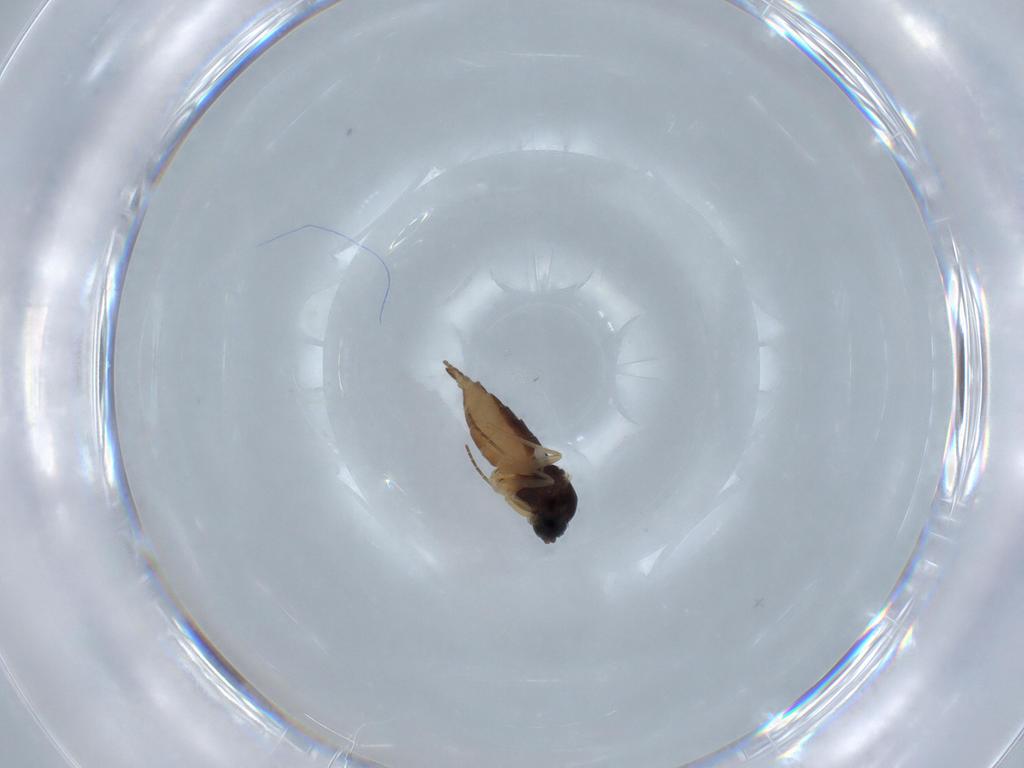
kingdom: Animalia
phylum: Arthropoda
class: Insecta
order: Diptera
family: Sciaridae
